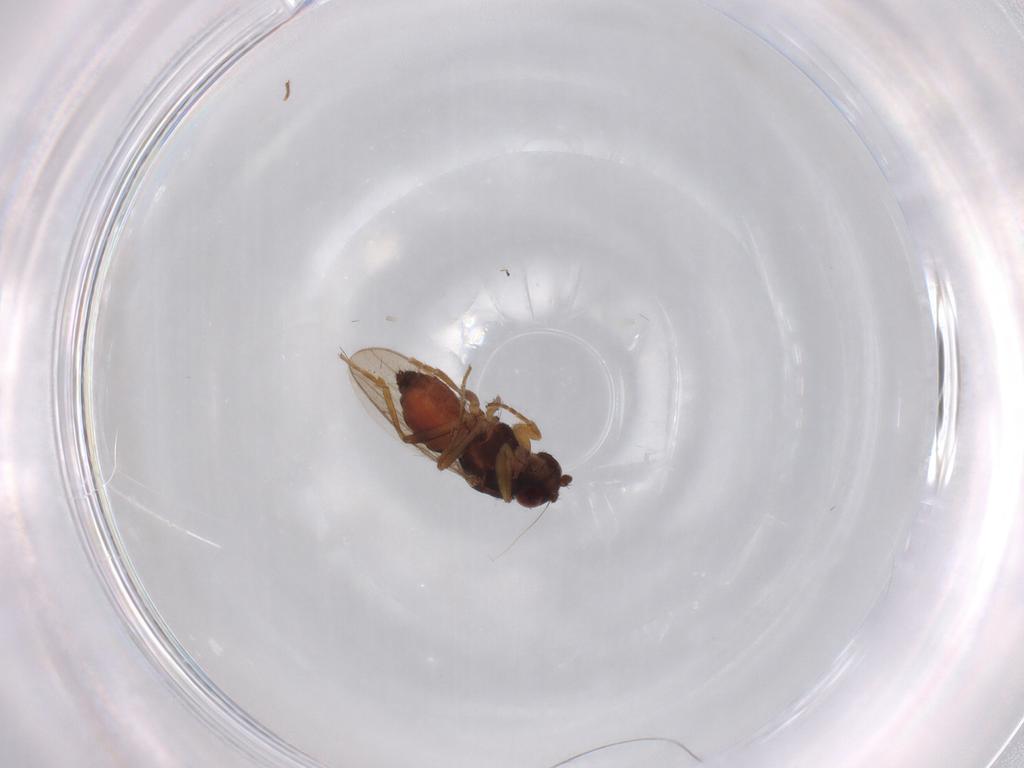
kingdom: Animalia
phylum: Arthropoda
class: Insecta
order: Diptera
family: Sphaeroceridae
